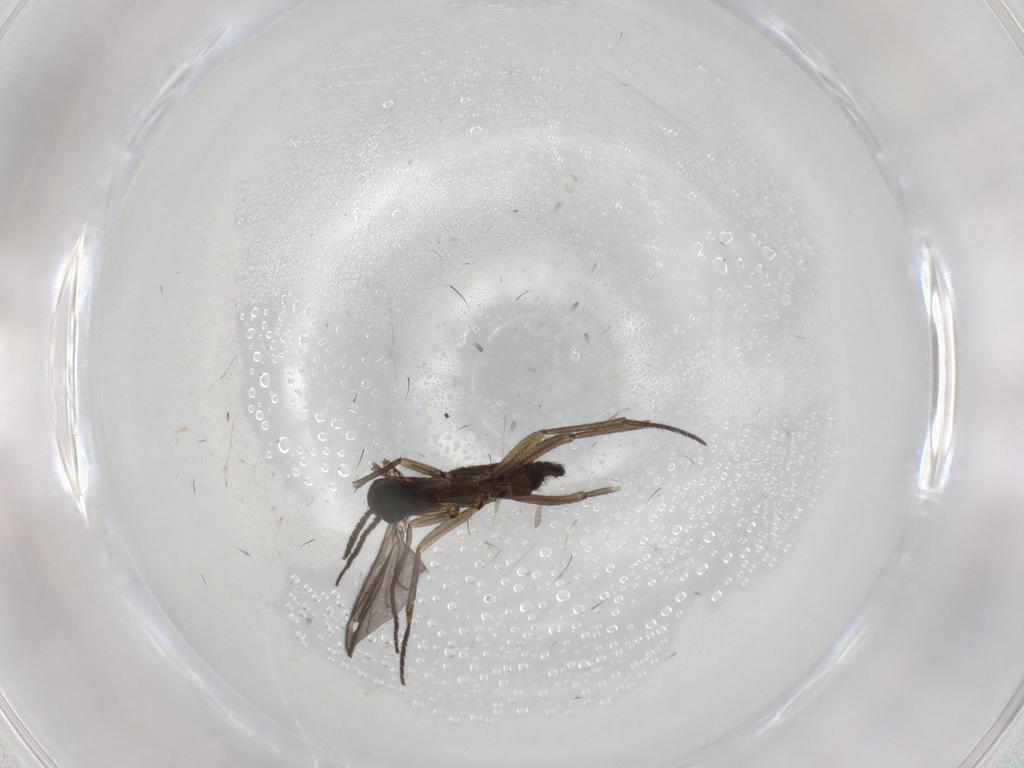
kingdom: Animalia
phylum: Arthropoda
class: Insecta
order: Diptera
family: Sciaridae
